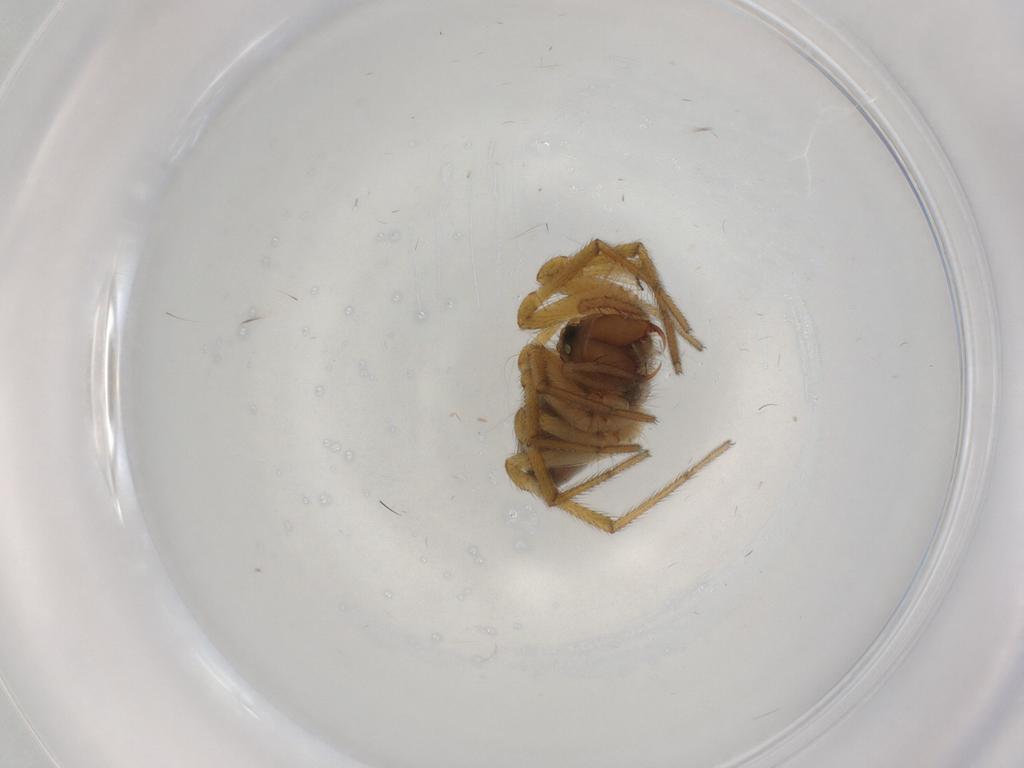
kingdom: Animalia
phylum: Arthropoda
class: Arachnida
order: Araneae
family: Linyphiidae
